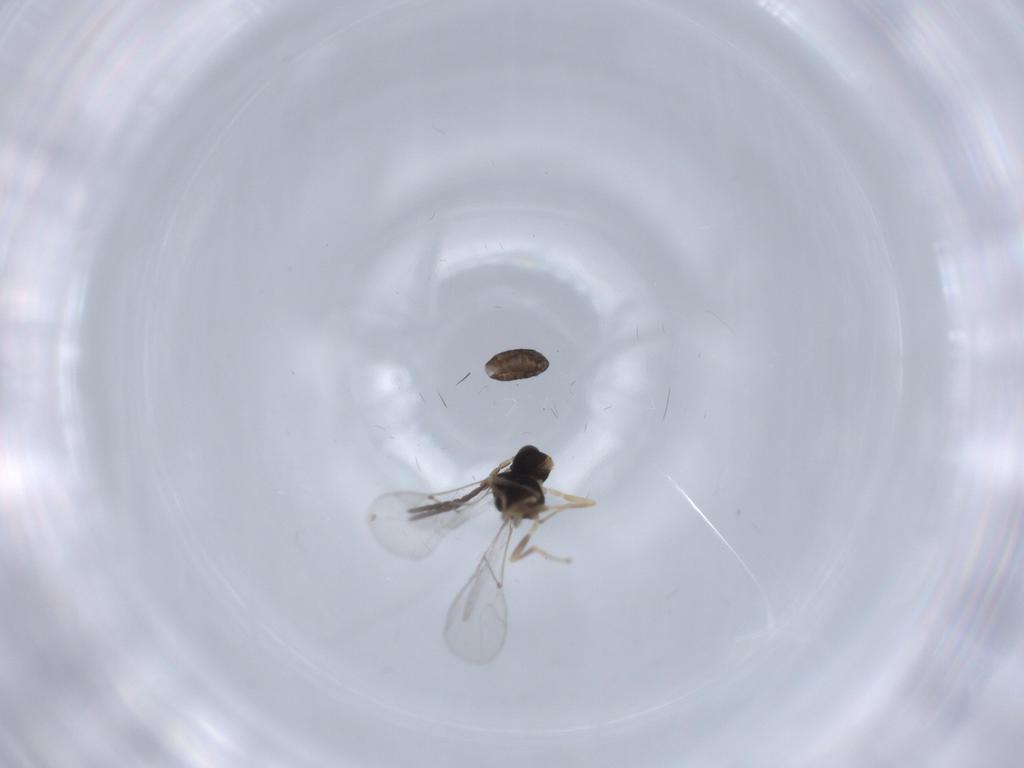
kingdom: Animalia
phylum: Arthropoda
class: Insecta
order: Hymenoptera
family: Braconidae
